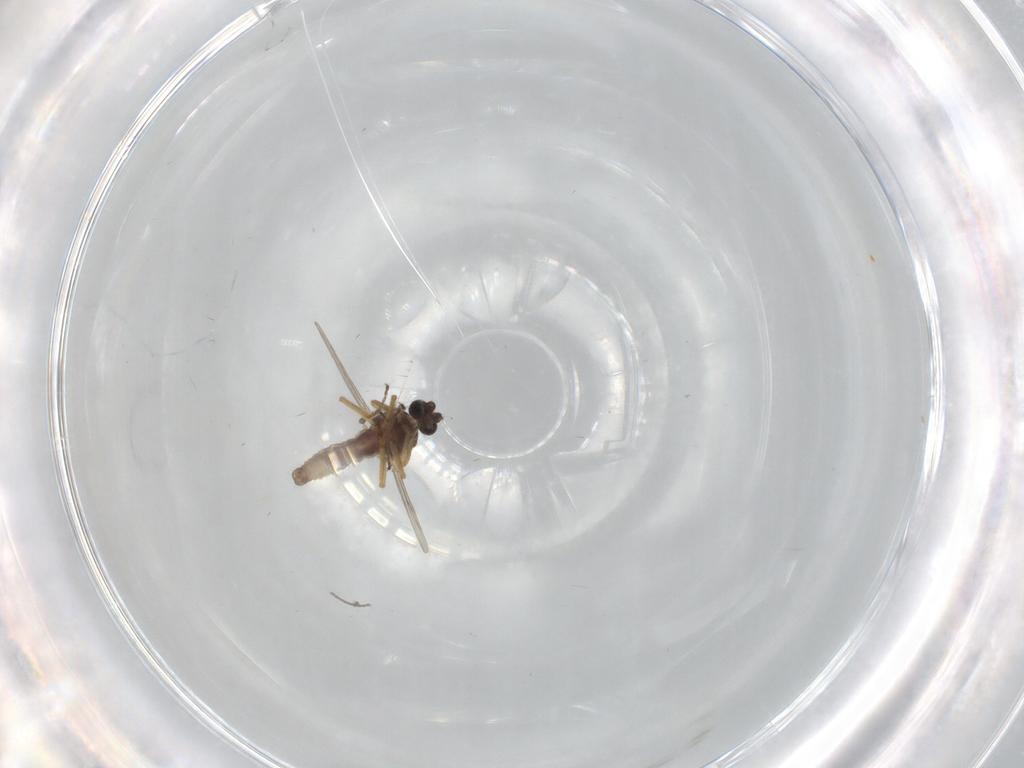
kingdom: Animalia
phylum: Arthropoda
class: Insecta
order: Diptera
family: Ceratopogonidae
